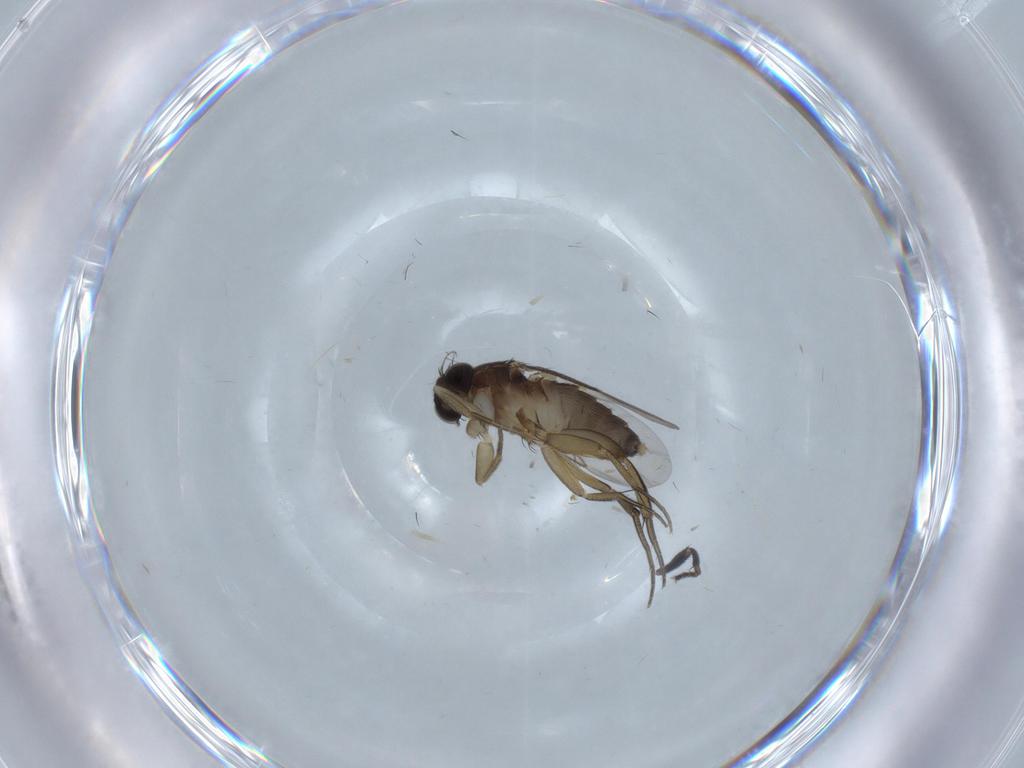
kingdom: Animalia
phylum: Arthropoda
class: Insecta
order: Diptera
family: Phoridae
